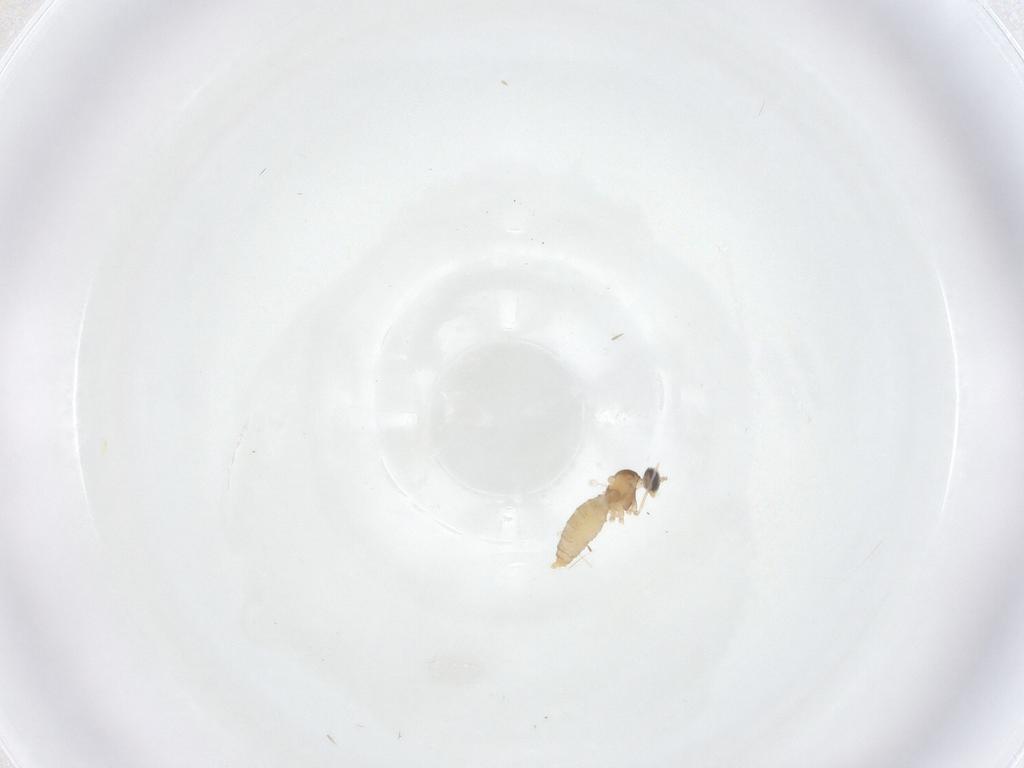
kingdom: Animalia
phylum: Arthropoda
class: Insecta
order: Diptera
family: Cecidomyiidae
